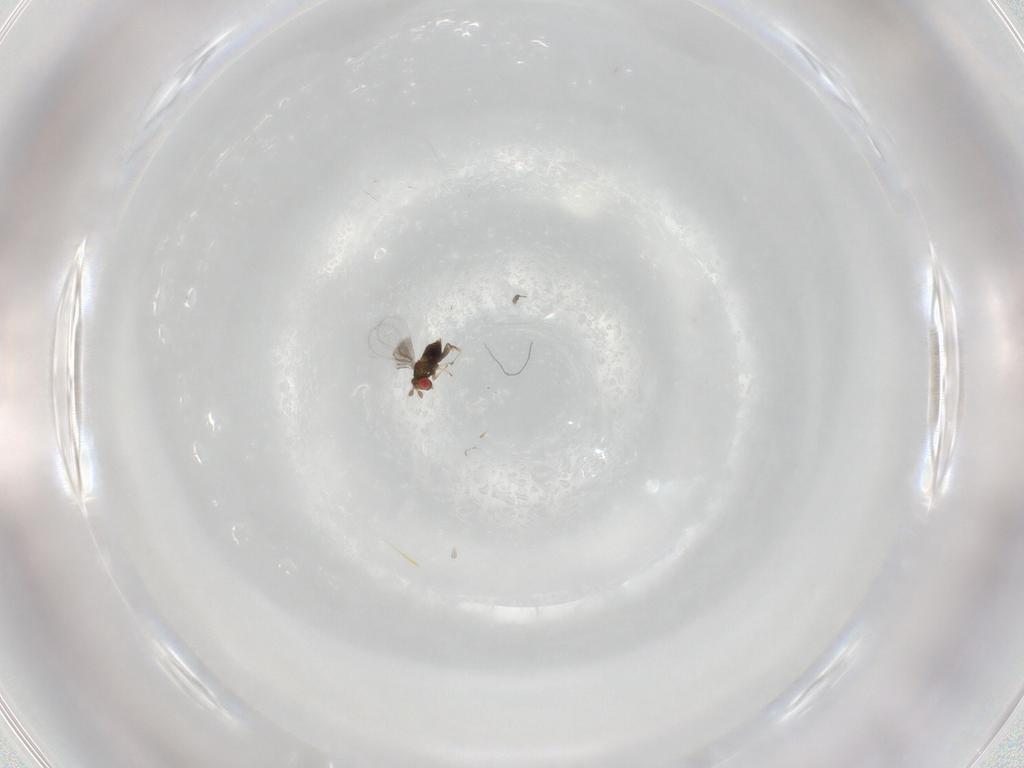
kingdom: Animalia
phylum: Arthropoda
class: Insecta
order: Hymenoptera
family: Trichogrammatidae
